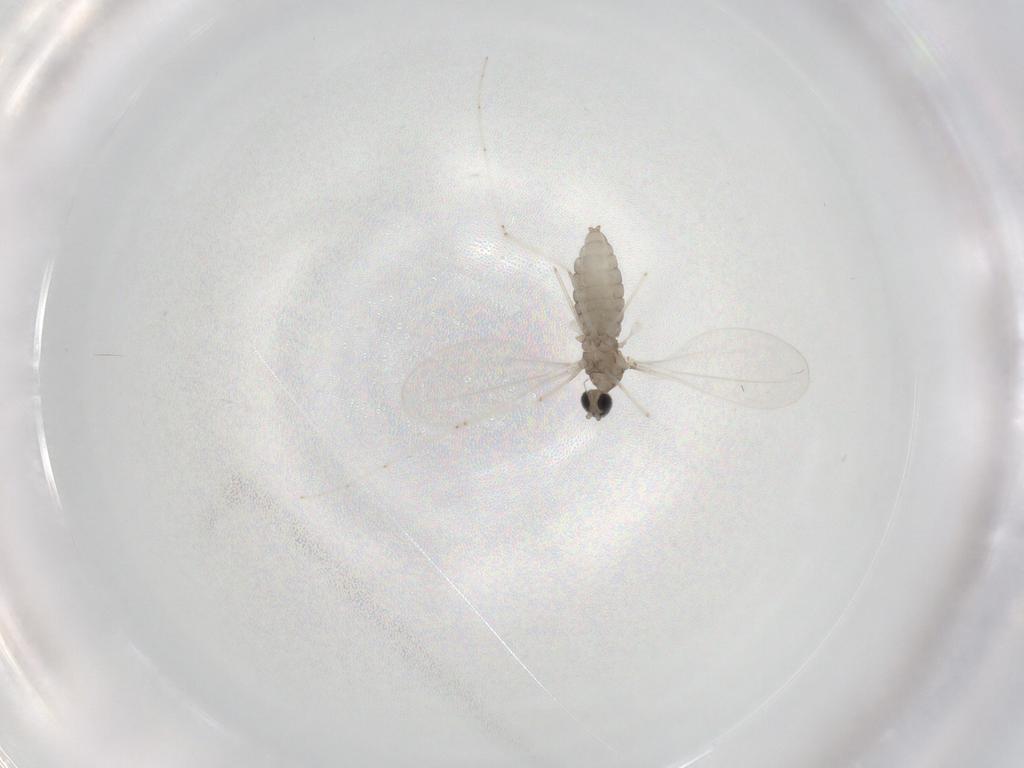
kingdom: Animalia
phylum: Arthropoda
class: Insecta
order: Diptera
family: Cecidomyiidae
